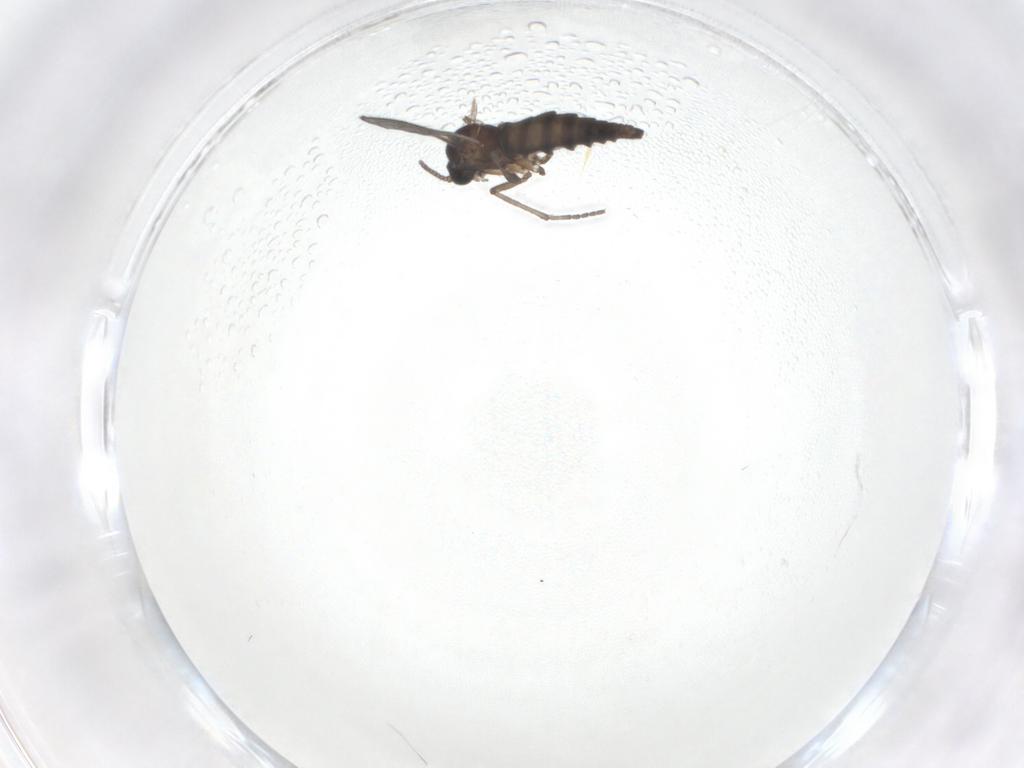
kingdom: Animalia
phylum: Arthropoda
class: Insecta
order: Diptera
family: Sciaridae
